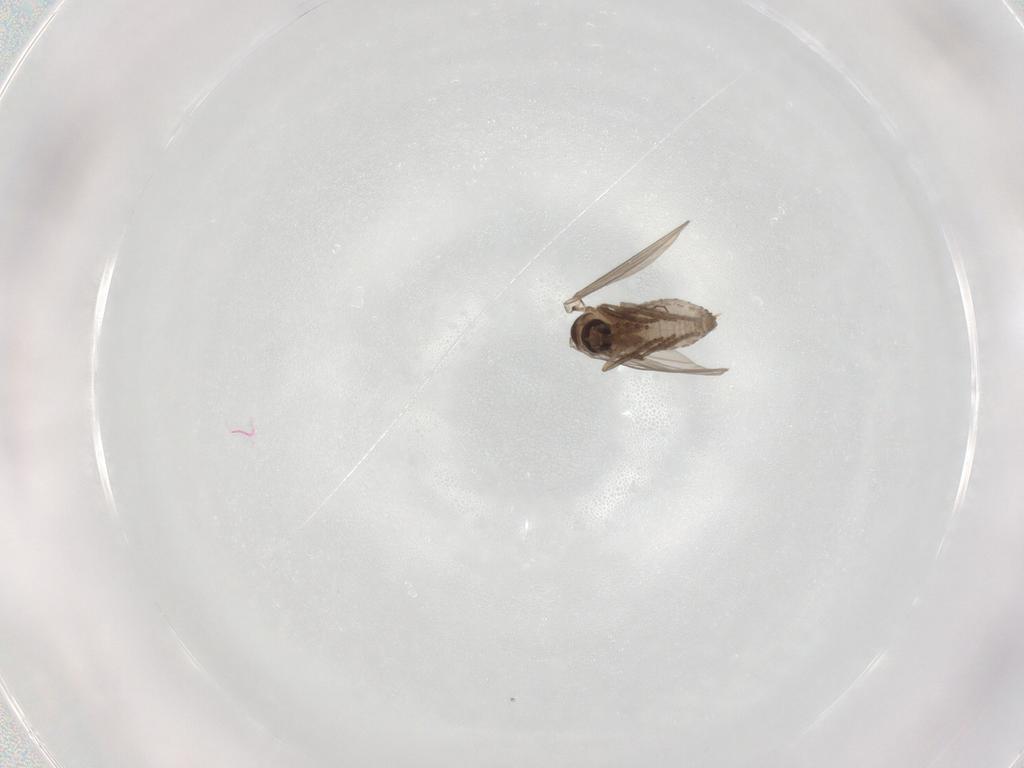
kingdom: Animalia
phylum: Arthropoda
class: Insecta
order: Diptera
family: Psychodidae
